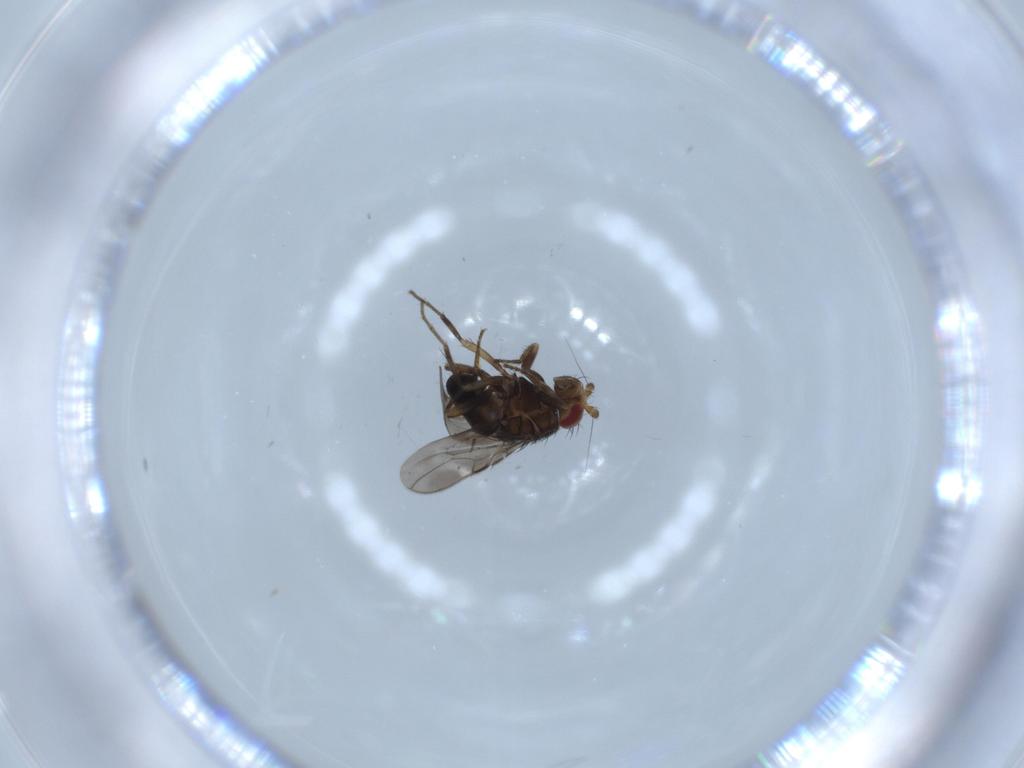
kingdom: Animalia
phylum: Arthropoda
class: Insecta
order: Diptera
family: Sphaeroceridae
